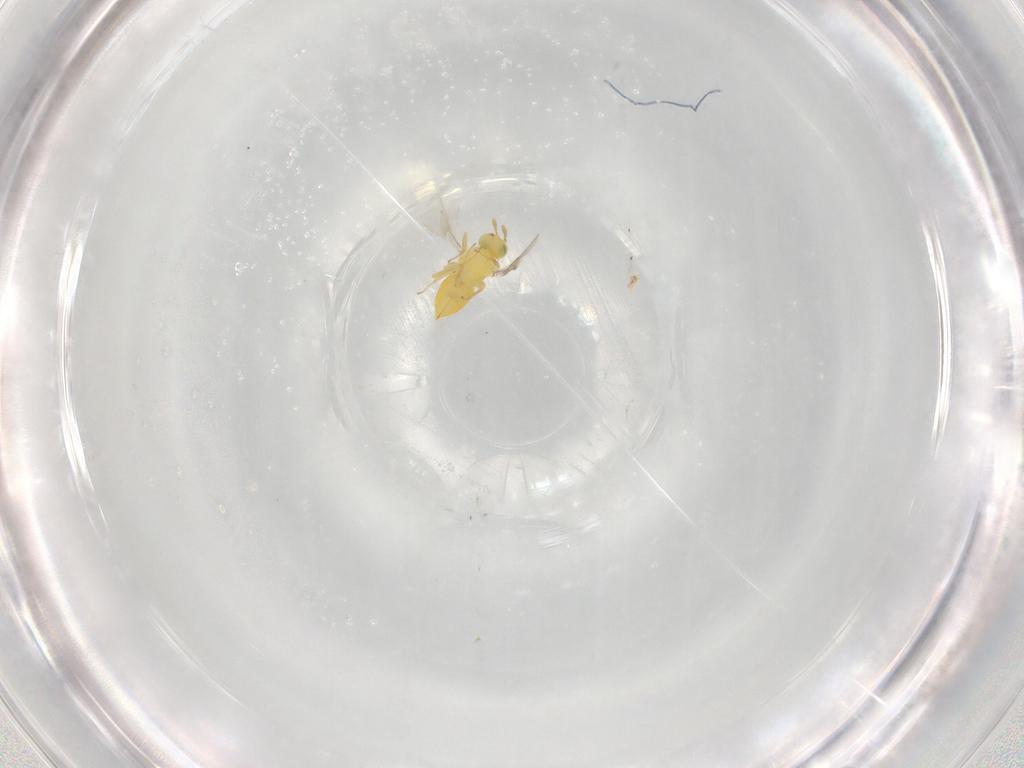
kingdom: Animalia
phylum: Arthropoda
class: Insecta
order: Hymenoptera
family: Aphelinidae
